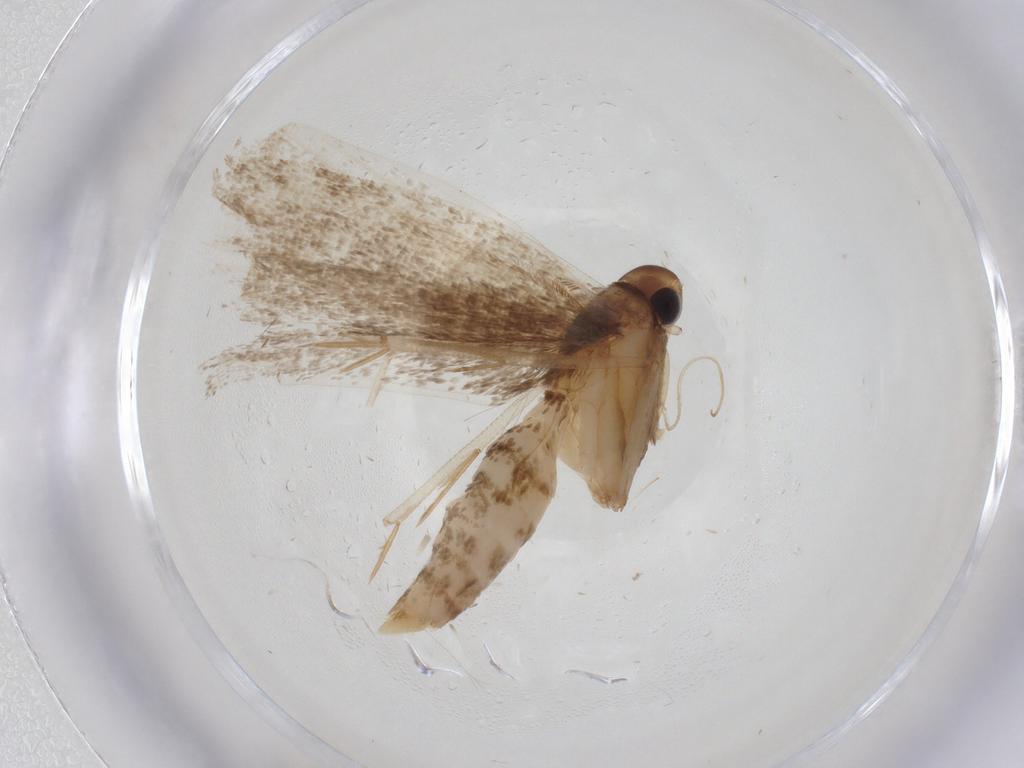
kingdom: Animalia
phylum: Arthropoda
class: Insecta
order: Lepidoptera
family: Gelechiidae
